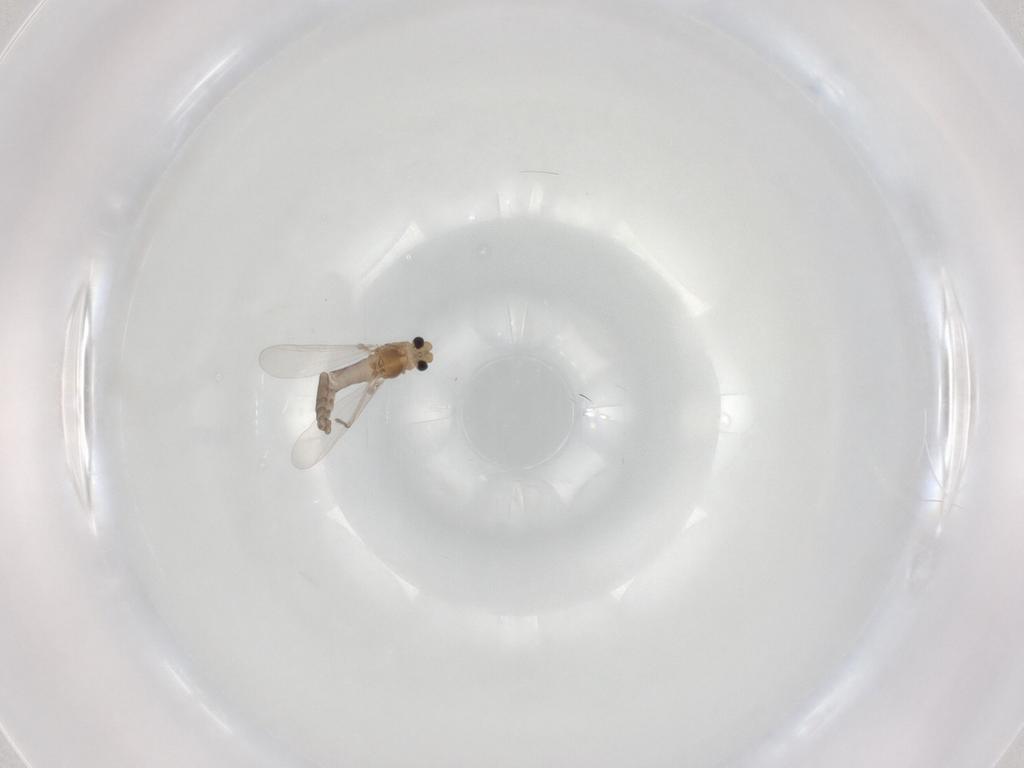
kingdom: Animalia
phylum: Arthropoda
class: Insecta
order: Diptera
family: Chironomidae
